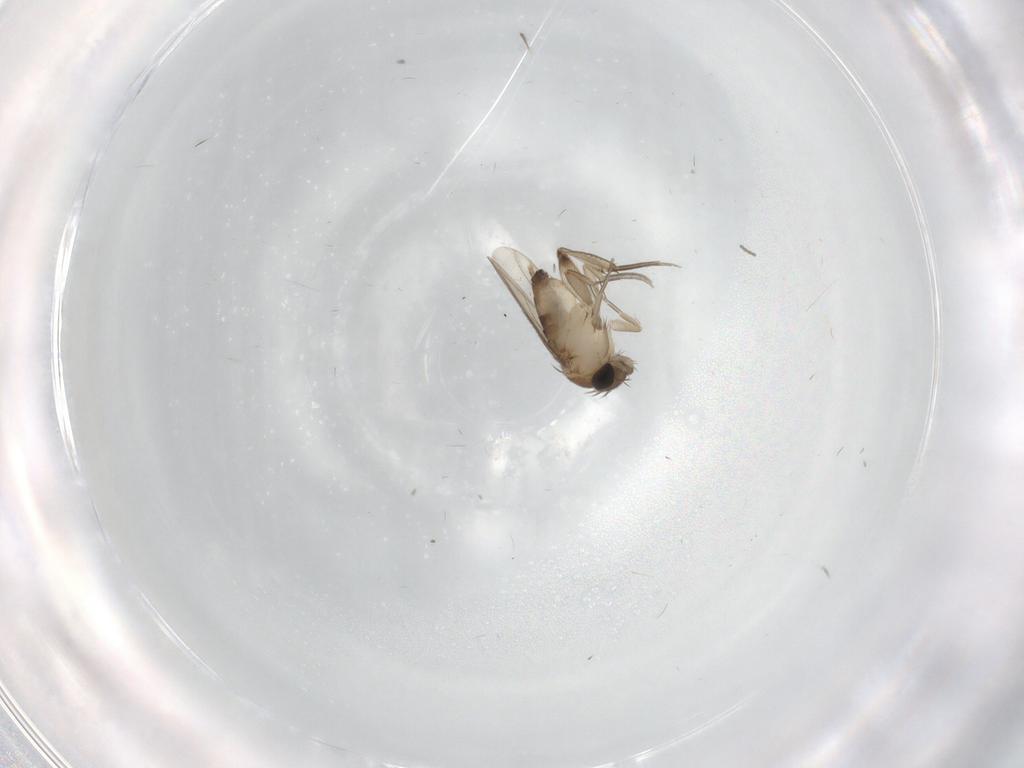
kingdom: Animalia
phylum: Arthropoda
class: Insecta
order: Diptera
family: Phoridae
